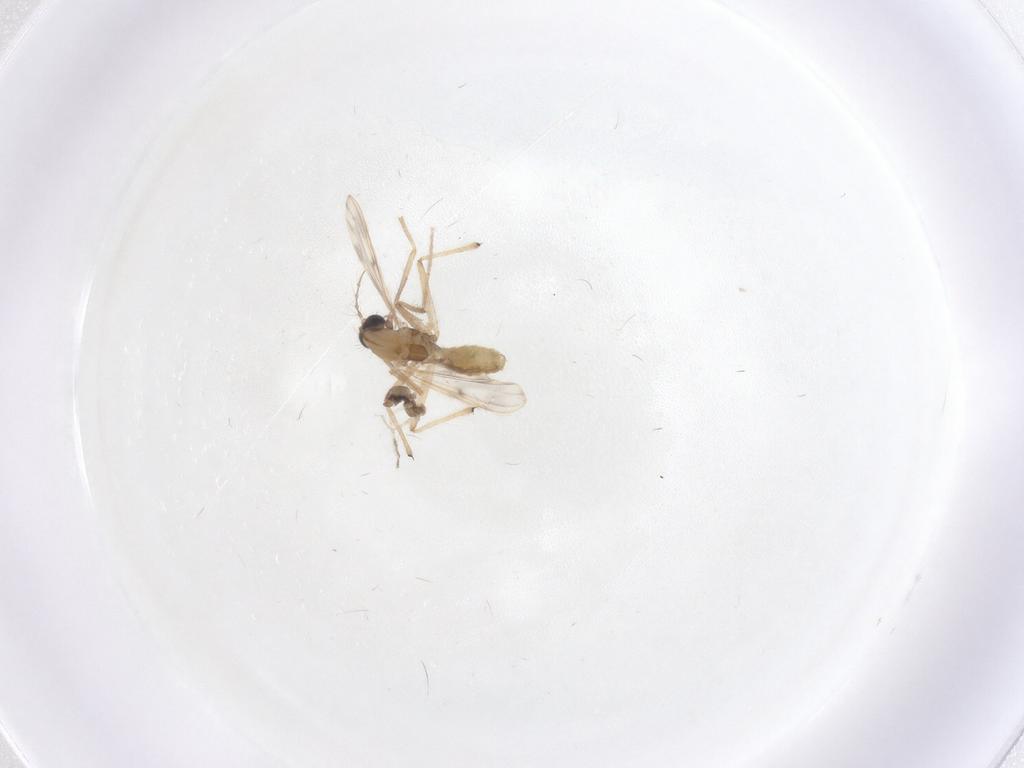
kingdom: Animalia
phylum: Arthropoda
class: Insecta
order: Diptera
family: Chironomidae
